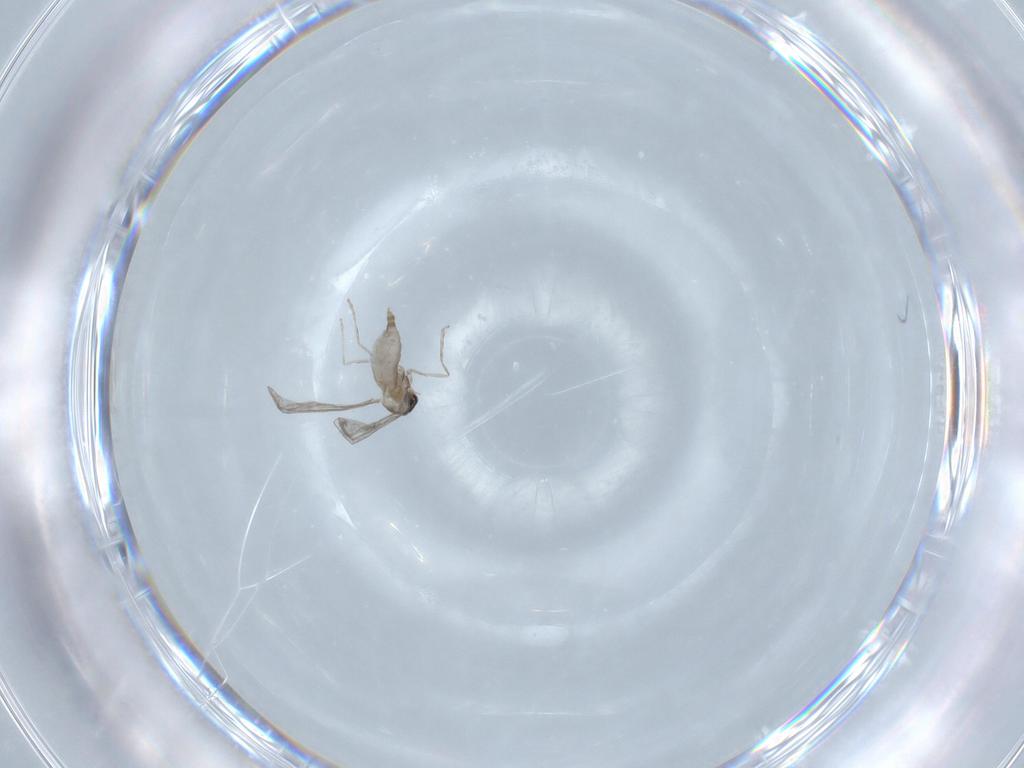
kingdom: Animalia
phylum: Arthropoda
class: Insecta
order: Diptera
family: Cecidomyiidae
